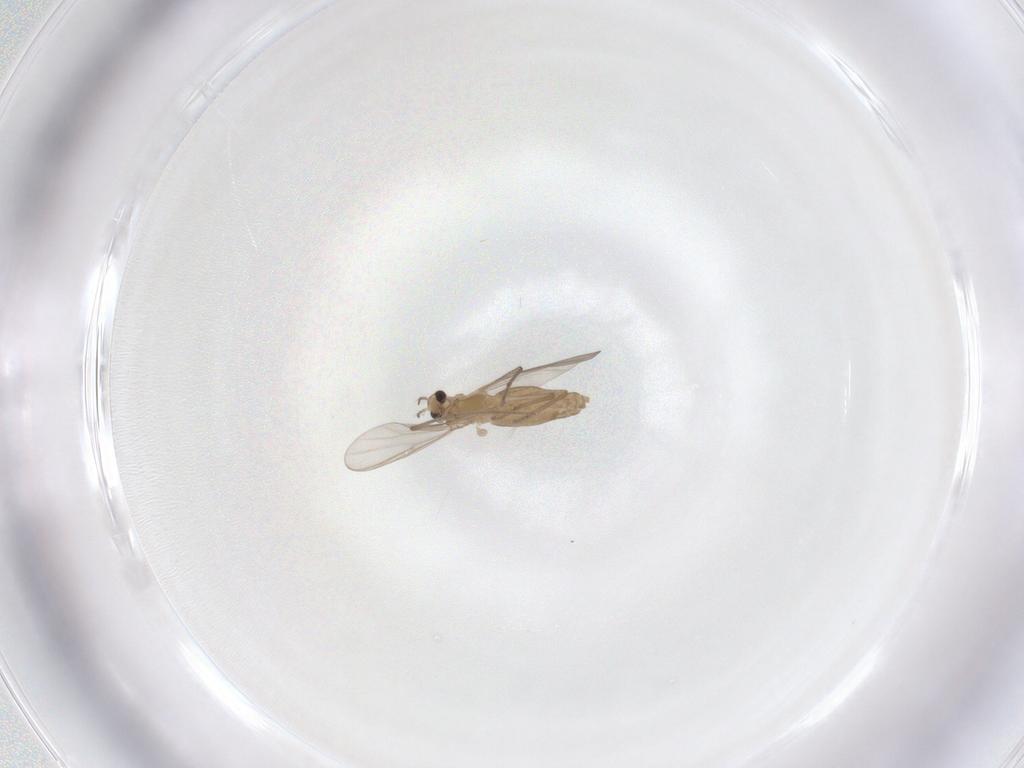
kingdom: Animalia
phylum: Arthropoda
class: Insecta
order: Diptera
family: Chironomidae
